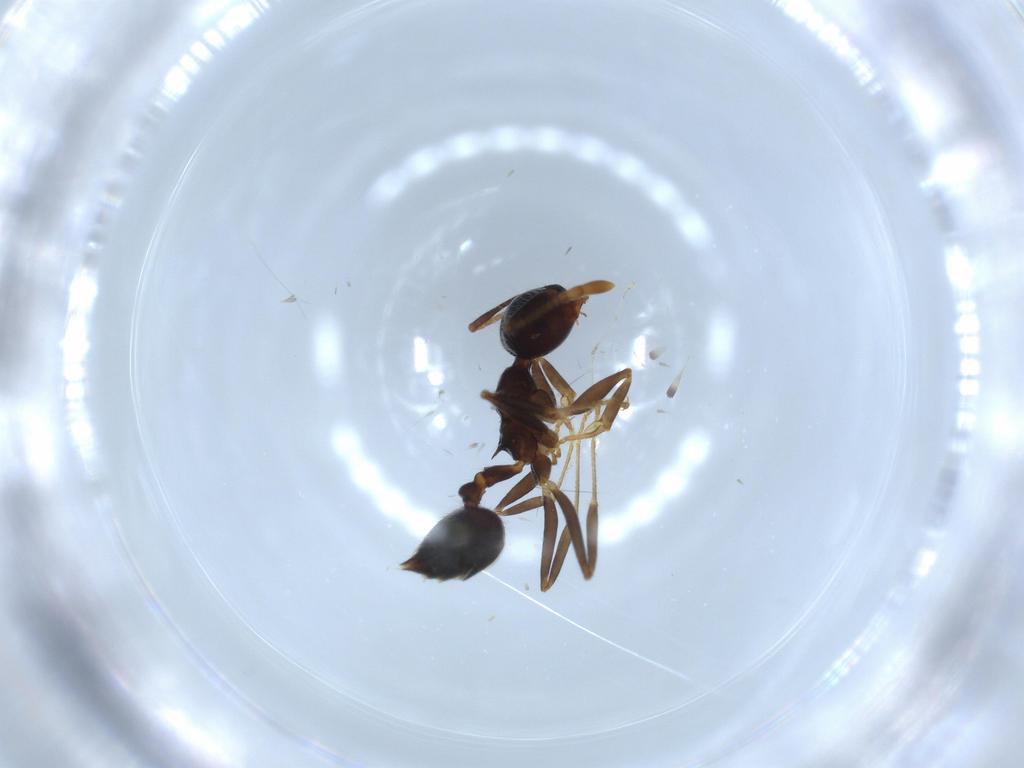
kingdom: Animalia
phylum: Arthropoda
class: Insecta
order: Hymenoptera
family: Formicidae
